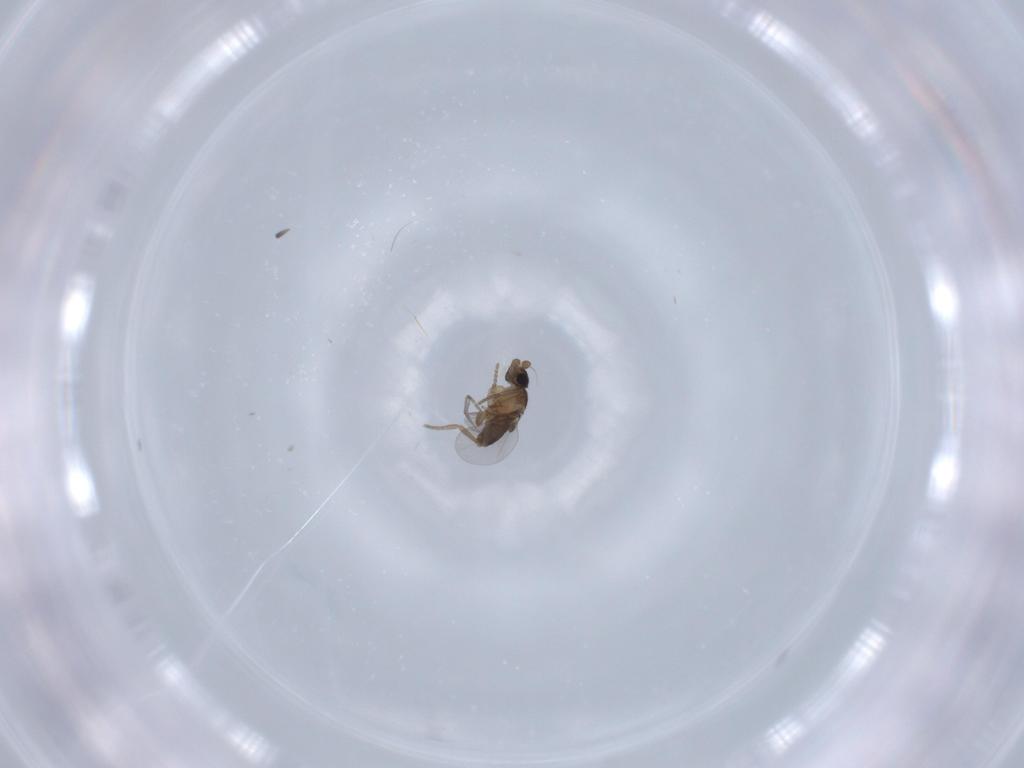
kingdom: Animalia
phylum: Arthropoda
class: Insecta
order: Diptera
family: Phoridae
